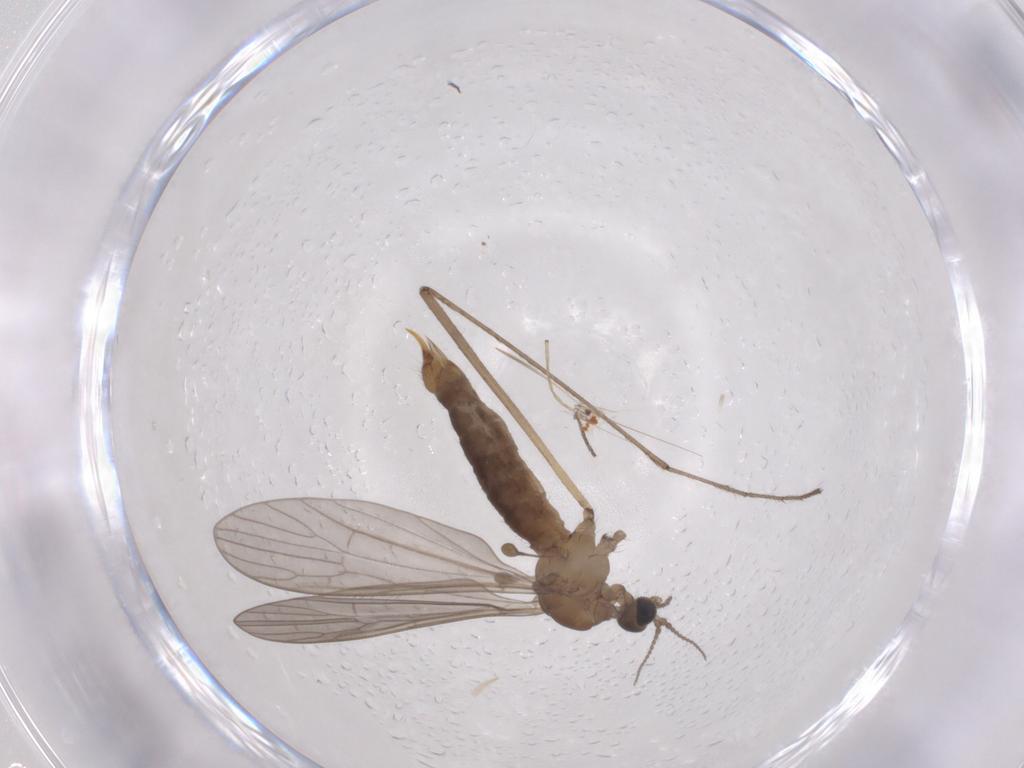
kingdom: Animalia
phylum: Arthropoda
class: Insecta
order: Diptera
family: Limoniidae
